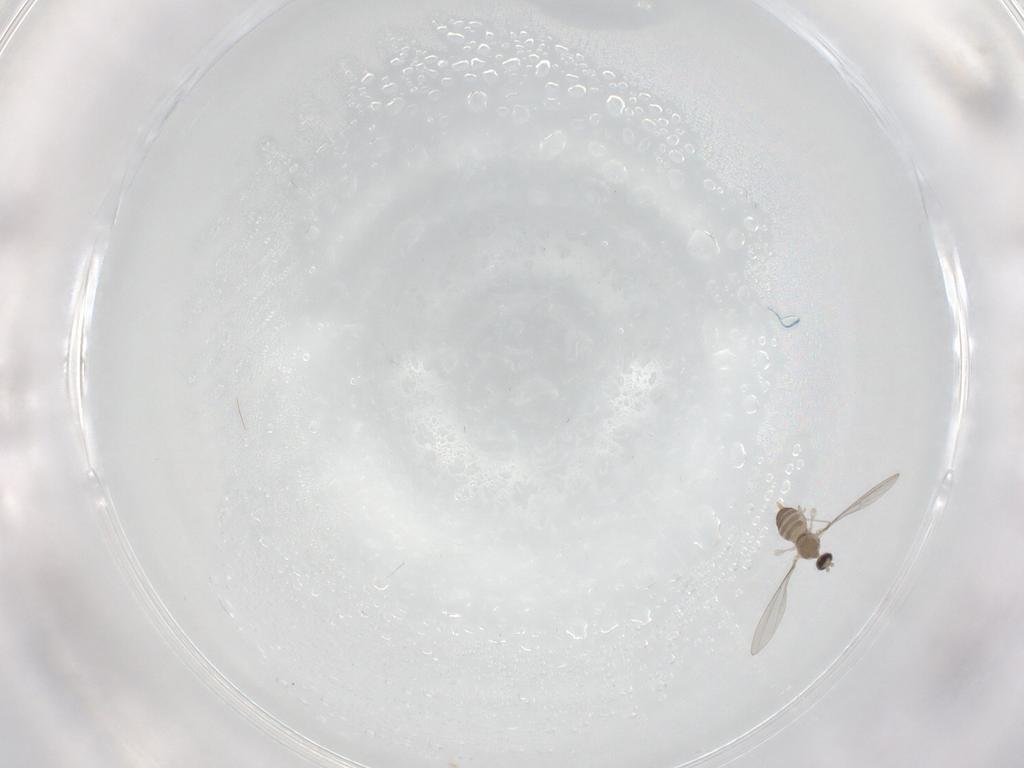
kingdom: Animalia
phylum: Arthropoda
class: Insecta
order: Diptera
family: Cecidomyiidae
